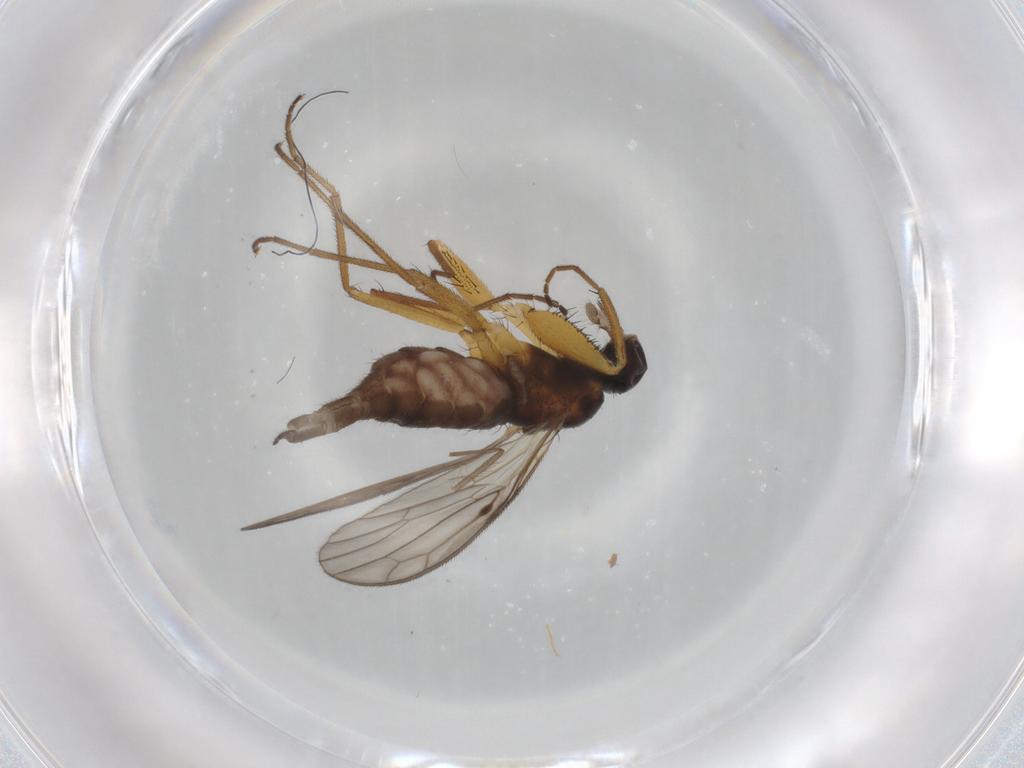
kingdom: Animalia
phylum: Arthropoda
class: Insecta
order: Diptera
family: Empididae
